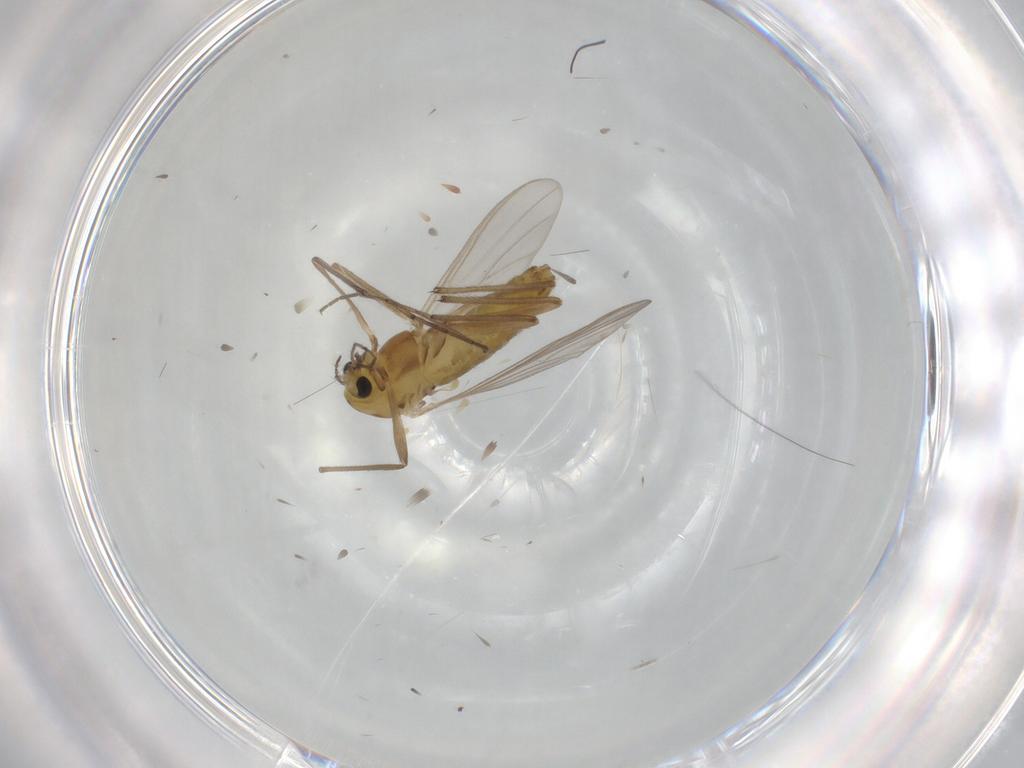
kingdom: Animalia
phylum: Arthropoda
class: Insecta
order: Diptera
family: Chironomidae
